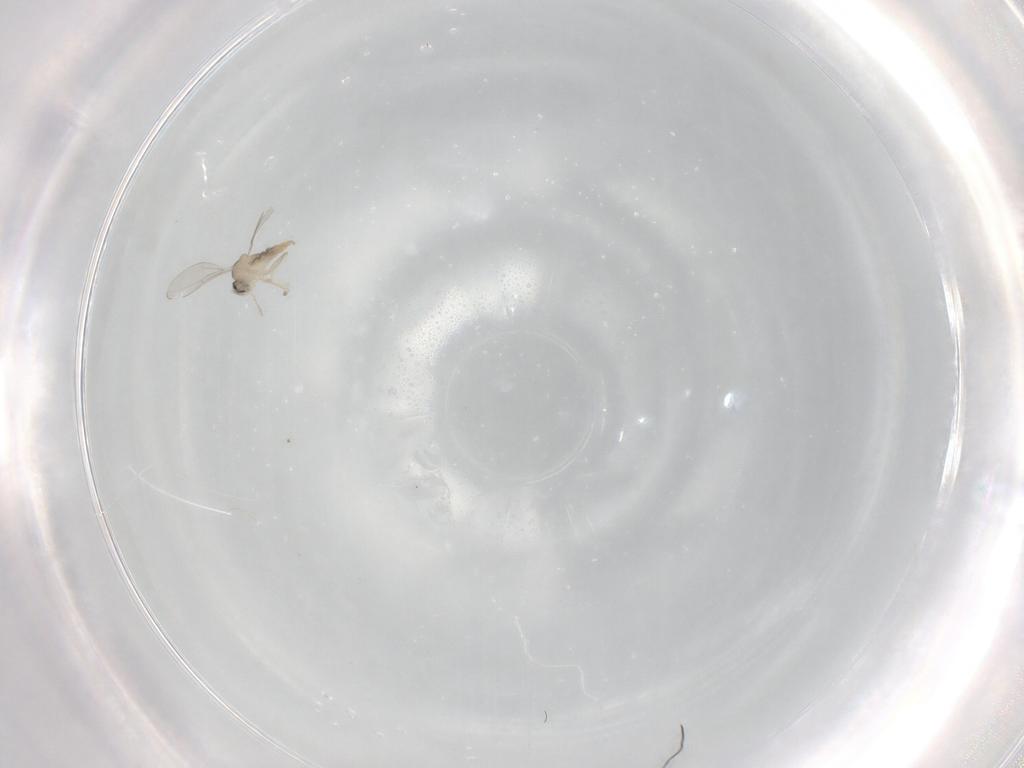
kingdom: Animalia
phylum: Arthropoda
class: Insecta
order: Diptera
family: Cecidomyiidae
